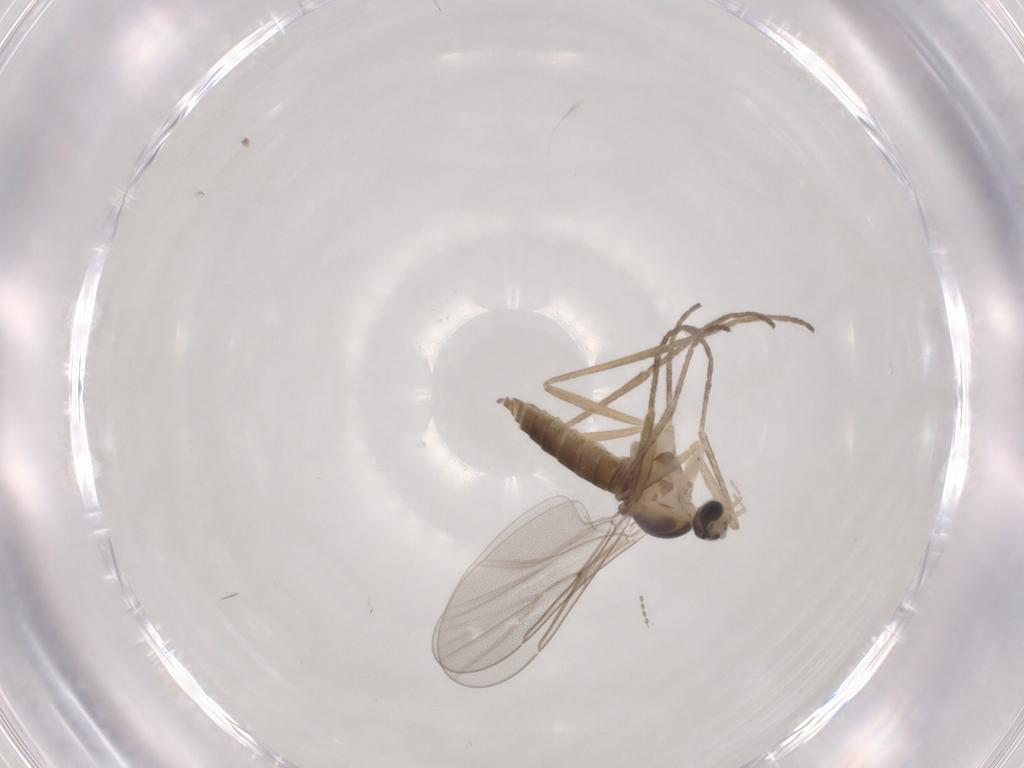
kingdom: Animalia
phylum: Arthropoda
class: Insecta
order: Diptera
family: Cecidomyiidae
